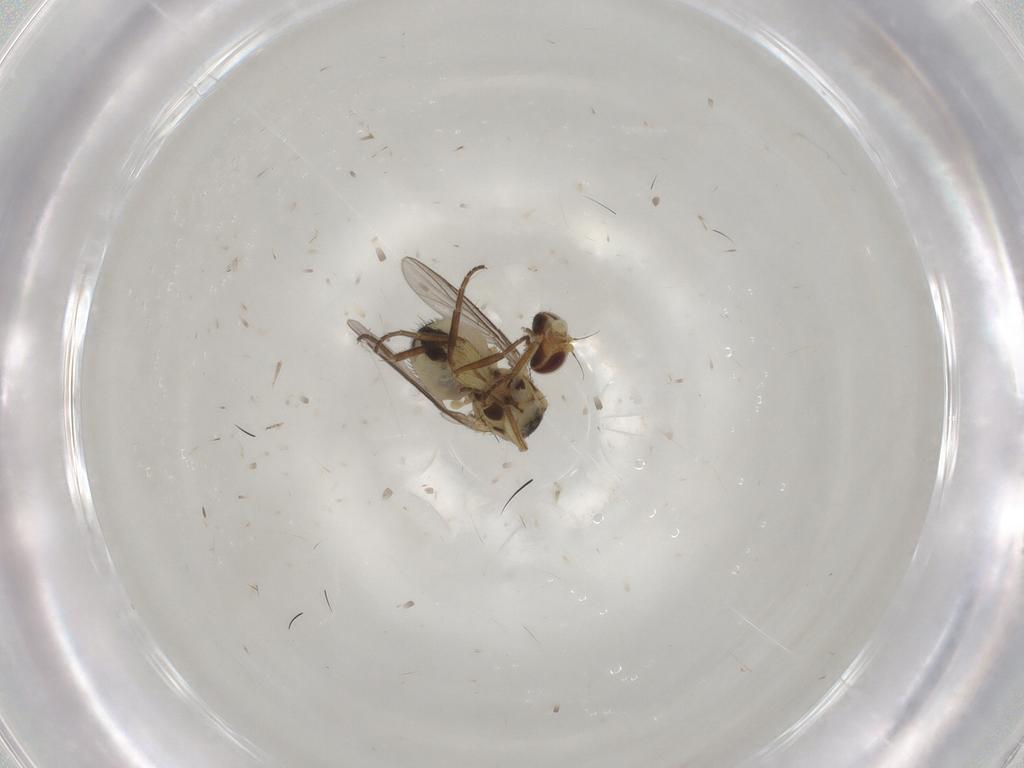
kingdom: Animalia
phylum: Arthropoda
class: Insecta
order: Diptera
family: Agromyzidae
